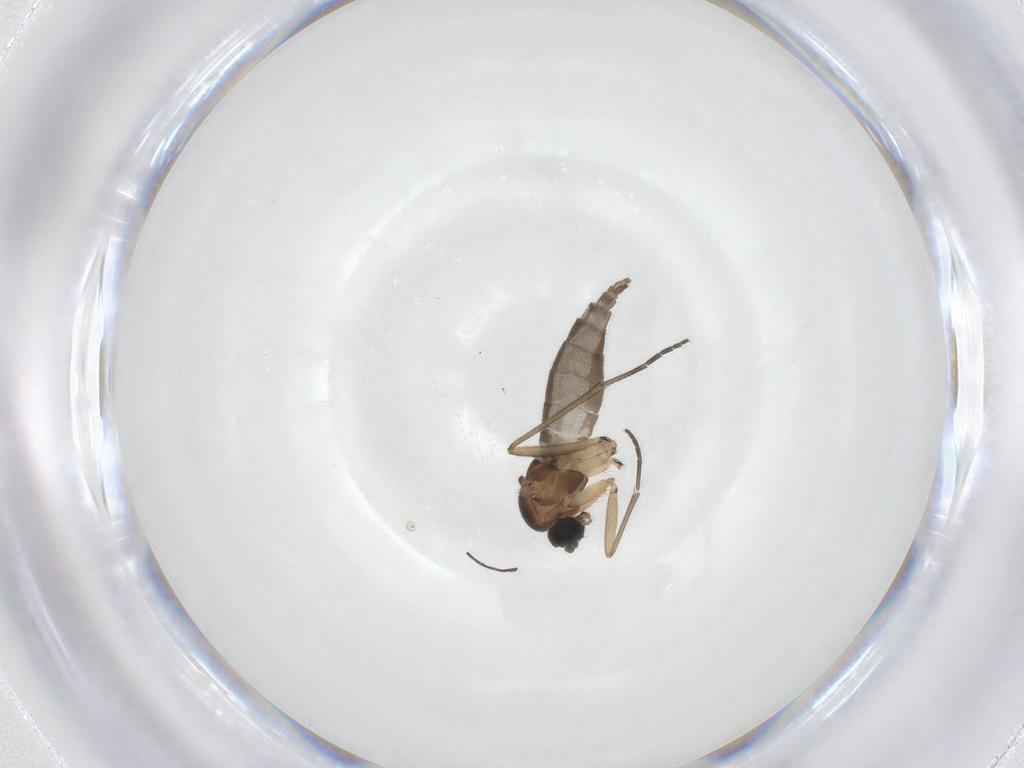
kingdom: Animalia
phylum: Arthropoda
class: Insecta
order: Diptera
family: Sciaridae
